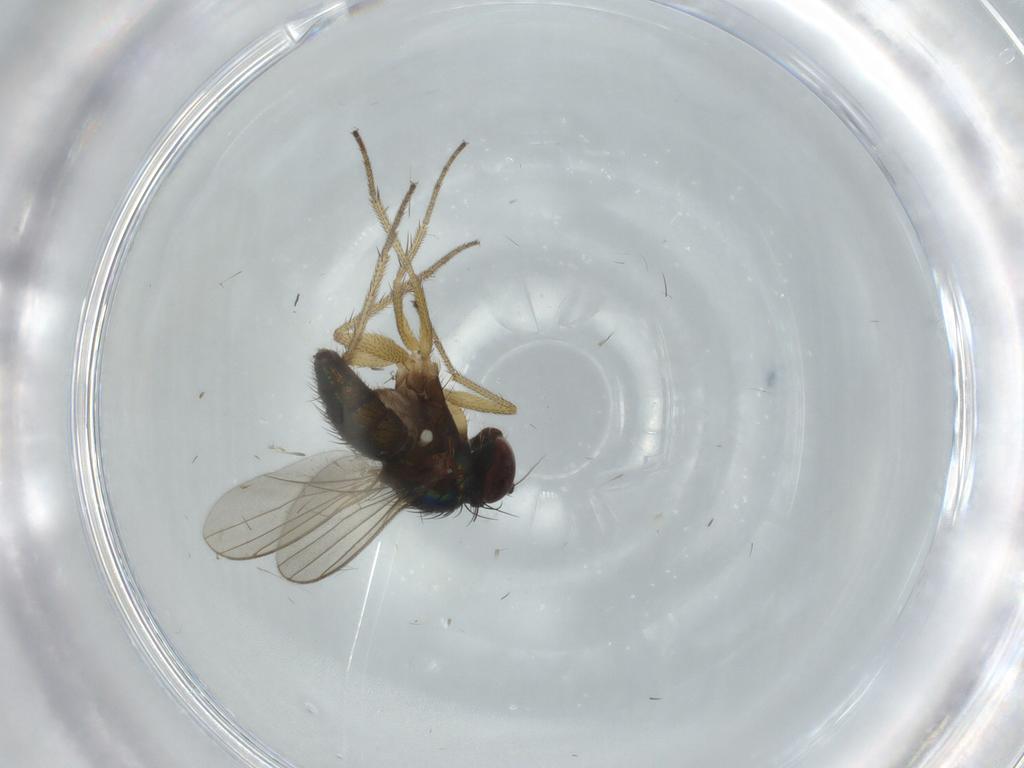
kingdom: Animalia
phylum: Arthropoda
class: Insecta
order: Diptera
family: Dolichopodidae
